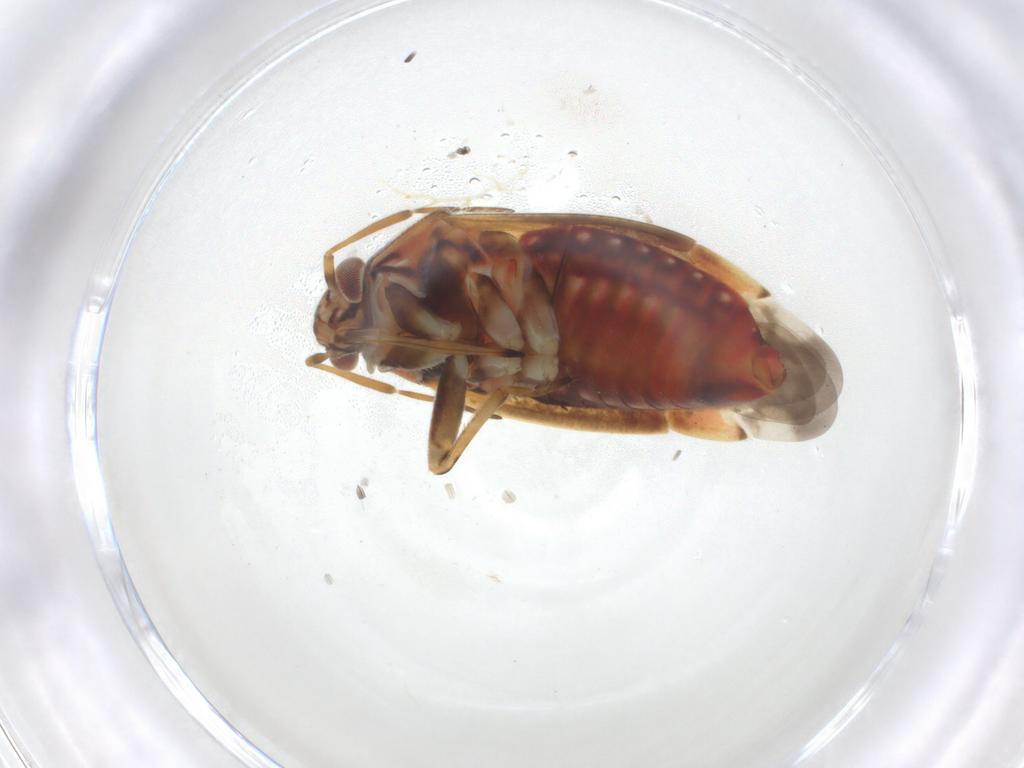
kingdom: Animalia
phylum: Arthropoda
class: Insecta
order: Hemiptera
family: Miridae
